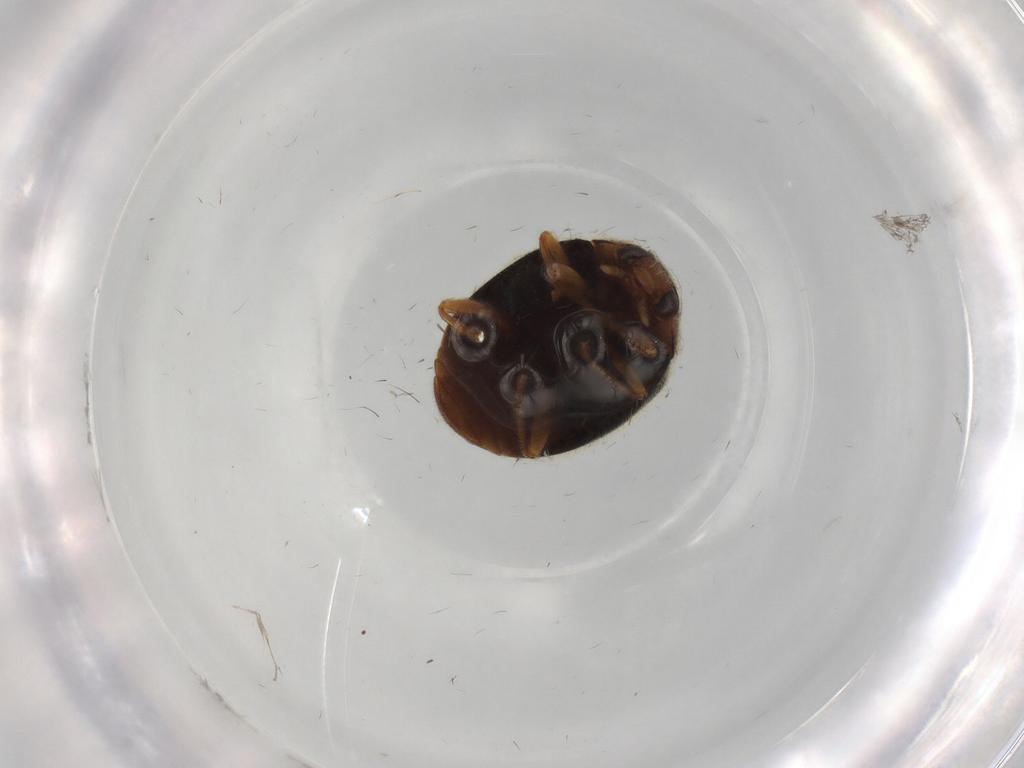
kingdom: Animalia
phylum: Arthropoda
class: Insecta
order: Coleoptera
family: Coccinellidae
